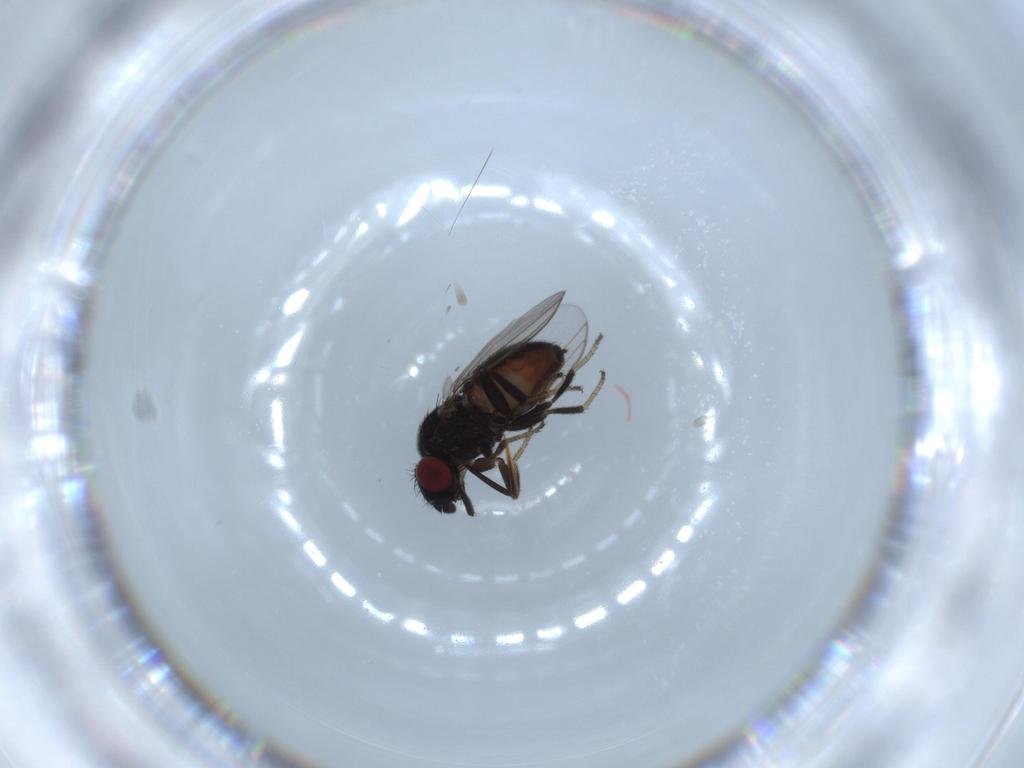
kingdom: Animalia
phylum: Arthropoda
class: Insecta
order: Diptera
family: Milichiidae
